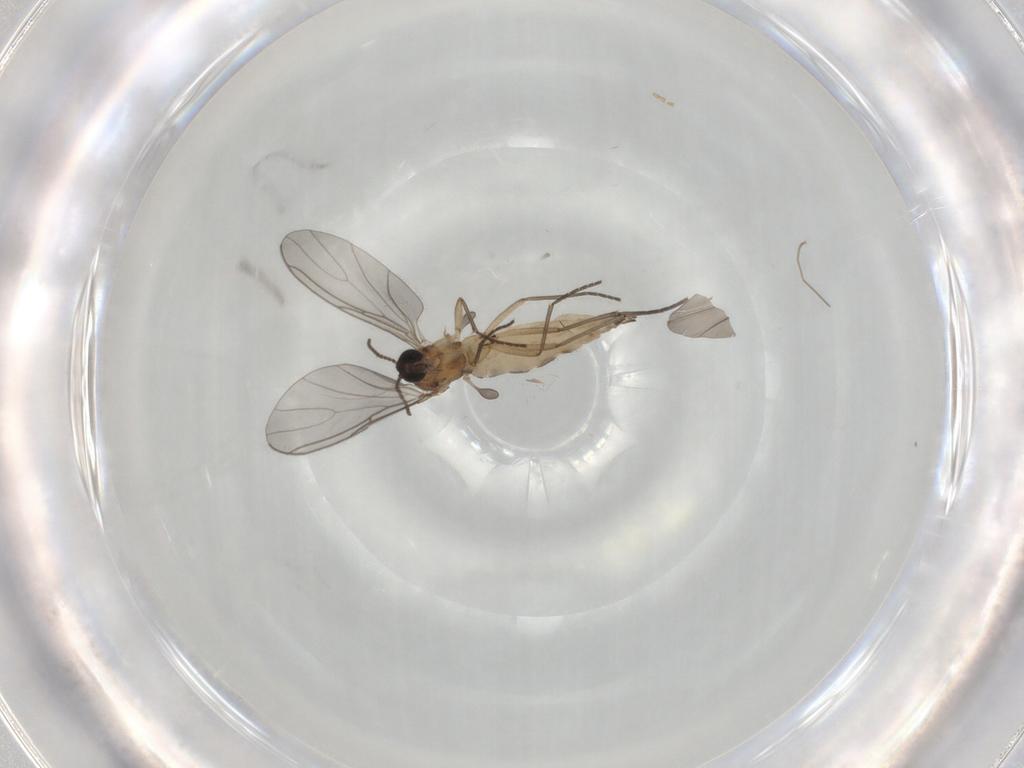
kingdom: Animalia
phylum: Arthropoda
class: Insecta
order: Diptera
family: Sciaridae
